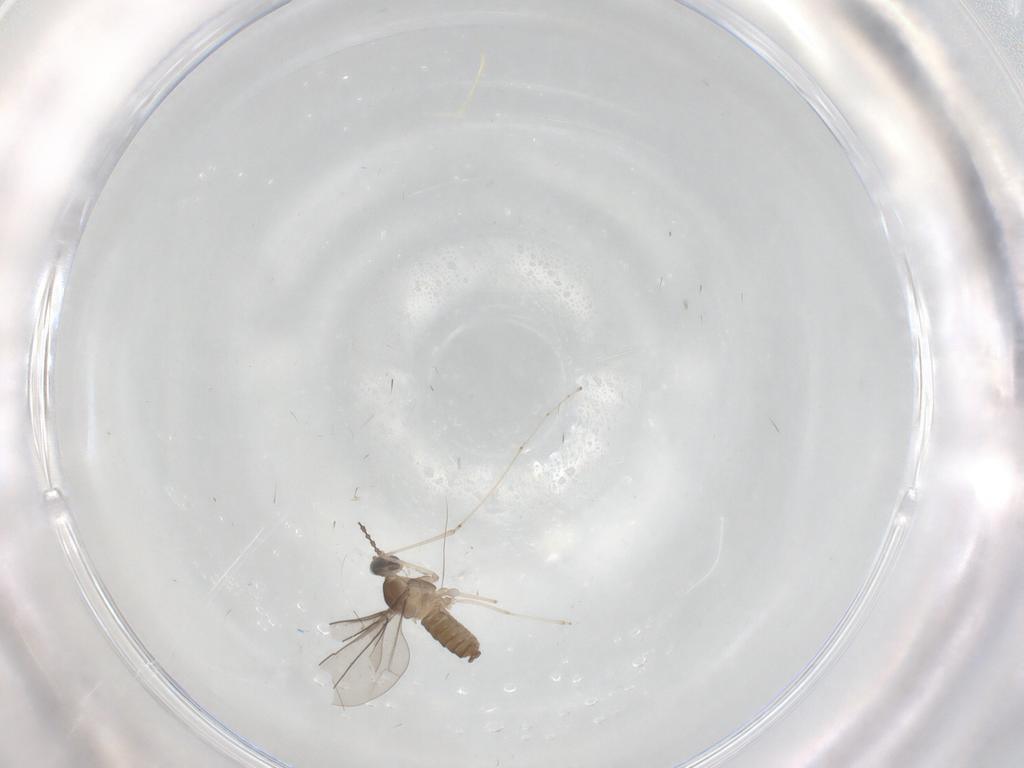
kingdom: Animalia
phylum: Arthropoda
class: Insecta
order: Diptera
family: Cecidomyiidae
